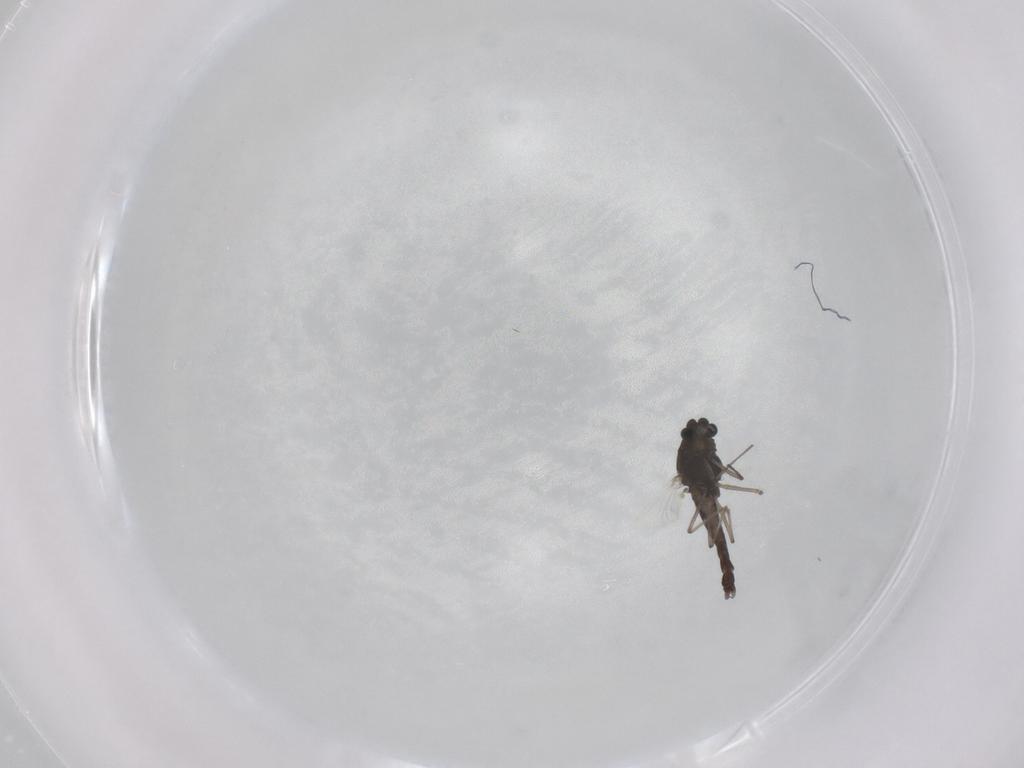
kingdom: Animalia
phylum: Arthropoda
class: Insecta
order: Diptera
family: Chironomidae
